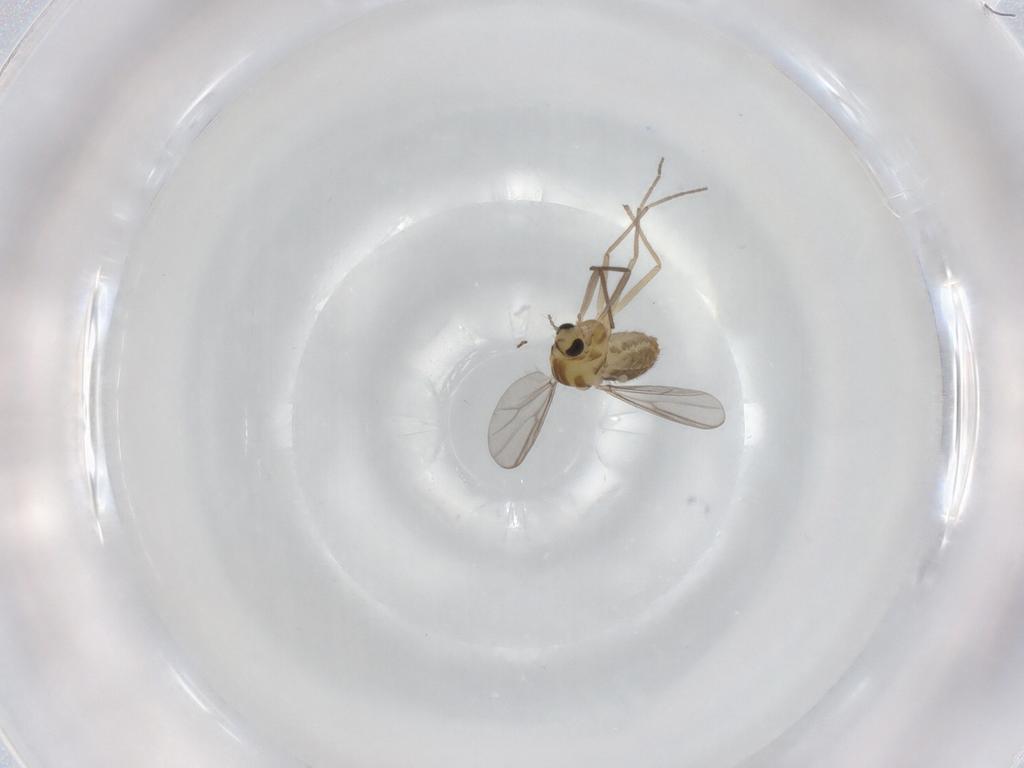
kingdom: Animalia
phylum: Arthropoda
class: Insecta
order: Diptera
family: Chironomidae
